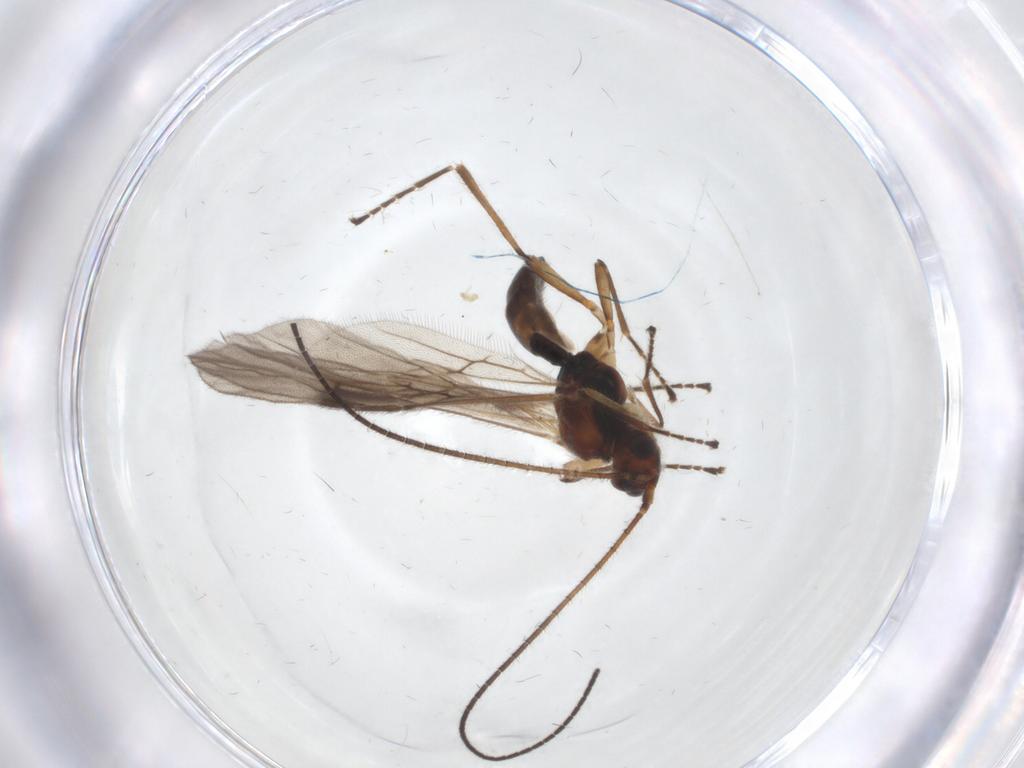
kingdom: Animalia
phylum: Arthropoda
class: Insecta
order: Hymenoptera
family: Braconidae
